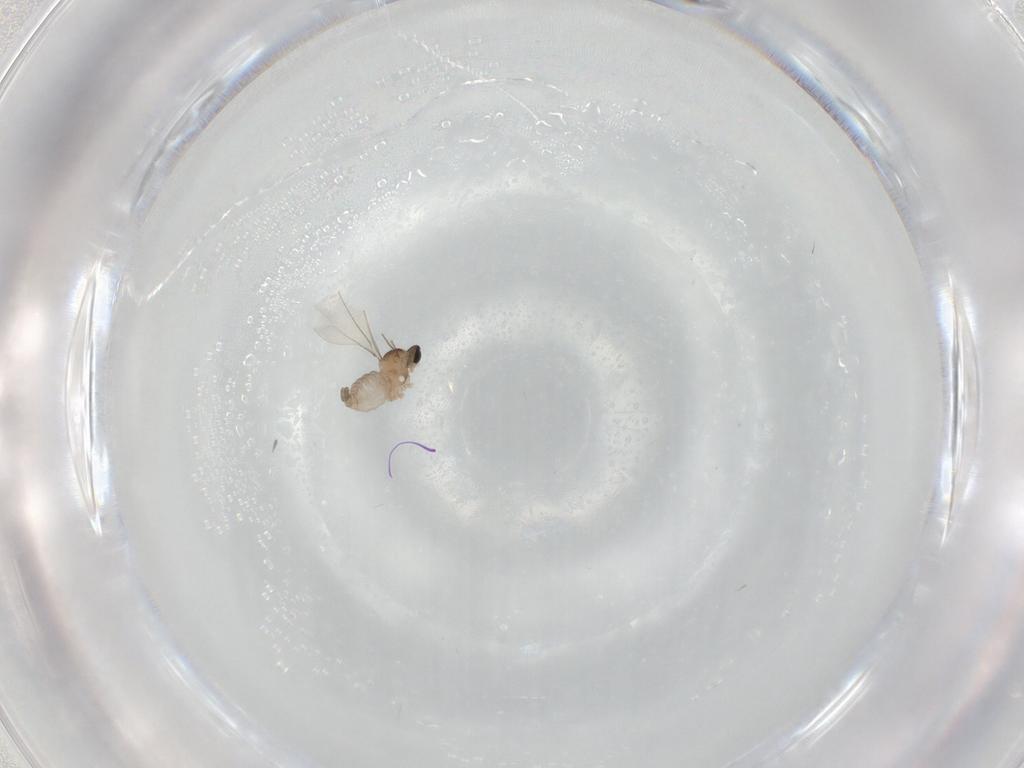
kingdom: Animalia
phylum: Arthropoda
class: Insecta
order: Diptera
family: Cecidomyiidae
